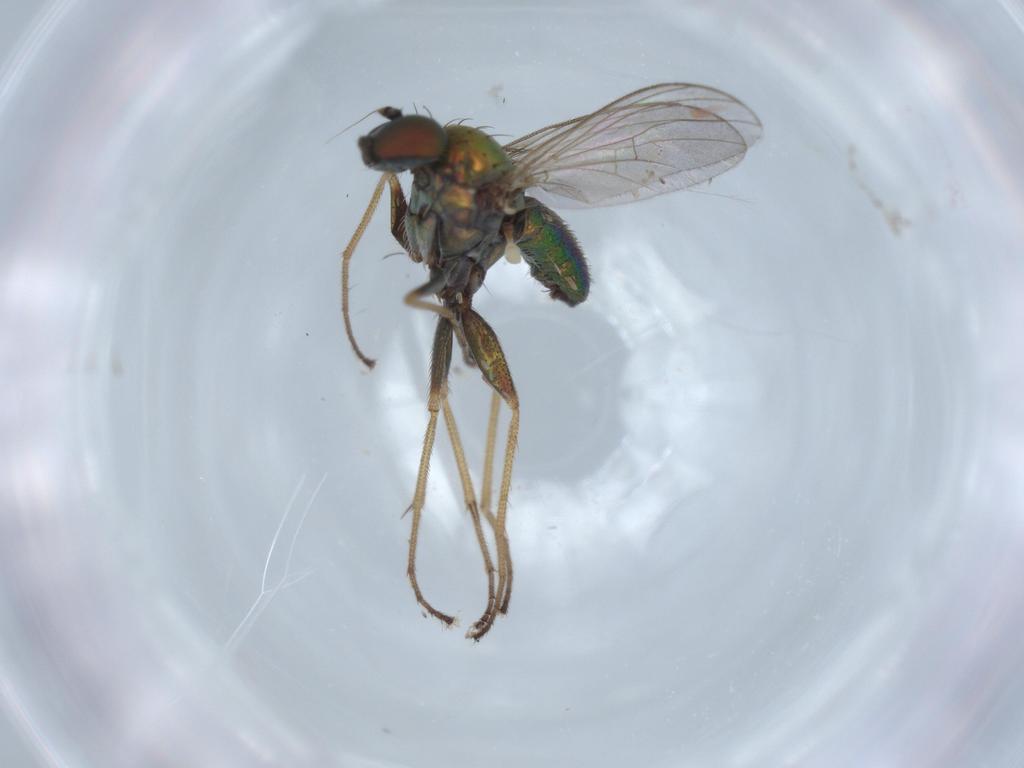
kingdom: Animalia
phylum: Arthropoda
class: Insecta
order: Diptera
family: Dolichopodidae
